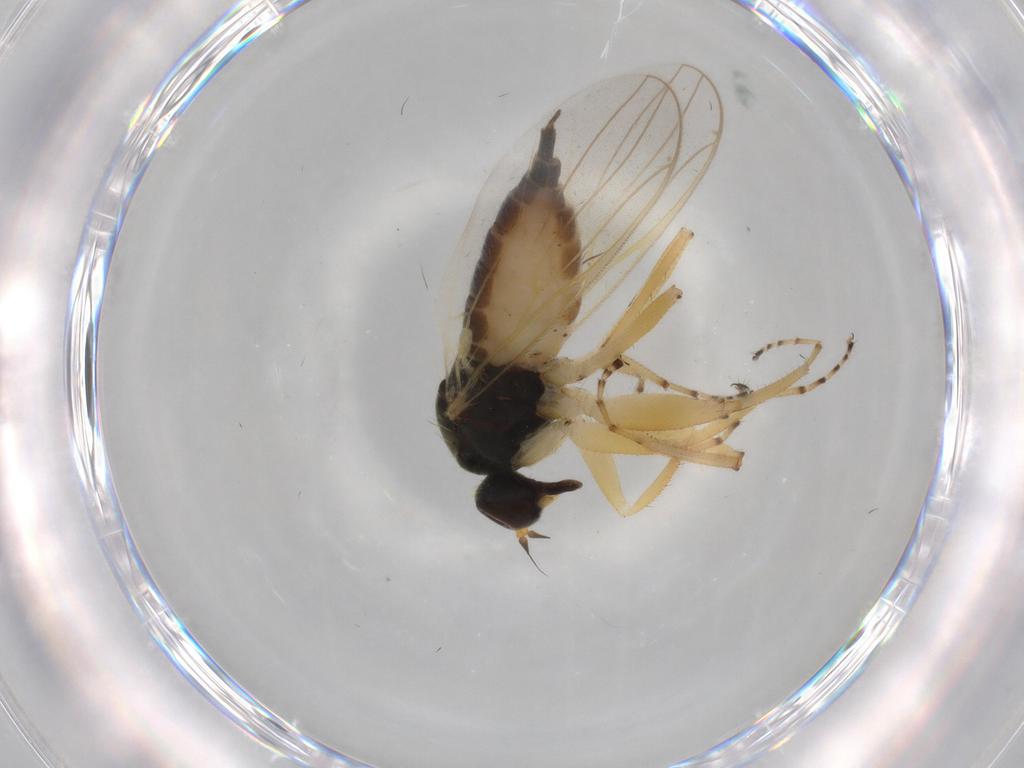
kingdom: Animalia
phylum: Arthropoda
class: Insecta
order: Diptera
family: Hybotidae
